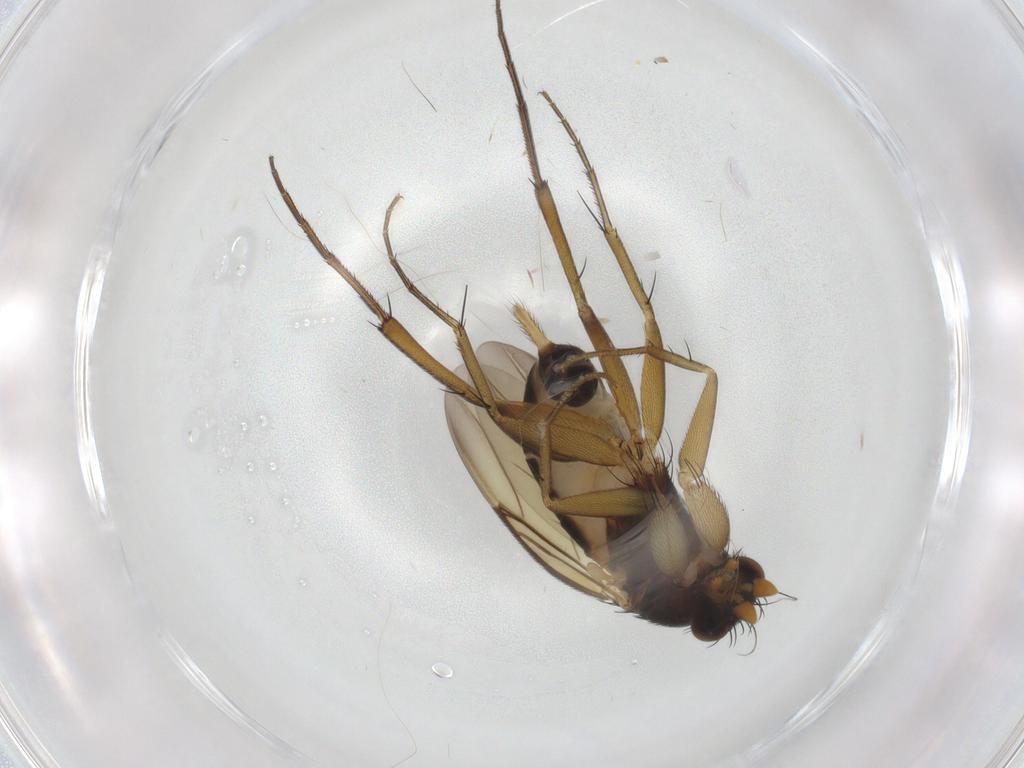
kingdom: Animalia
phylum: Arthropoda
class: Insecta
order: Diptera
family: Phoridae
